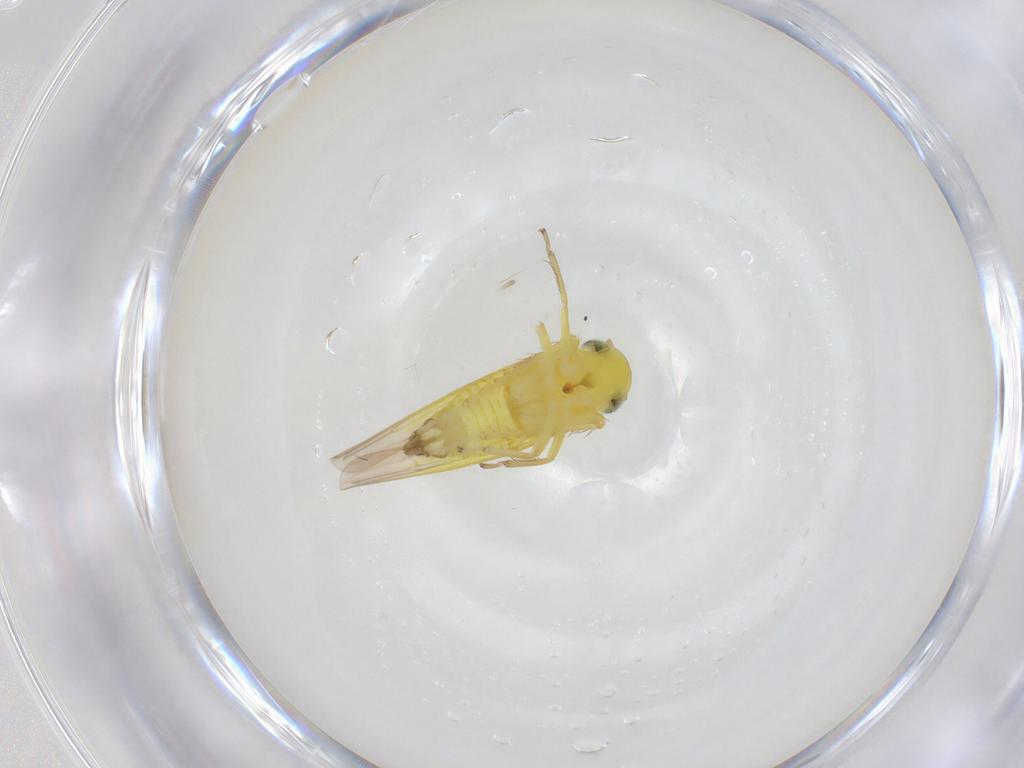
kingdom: Animalia
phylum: Arthropoda
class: Insecta
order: Hemiptera
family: Cicadellidae
